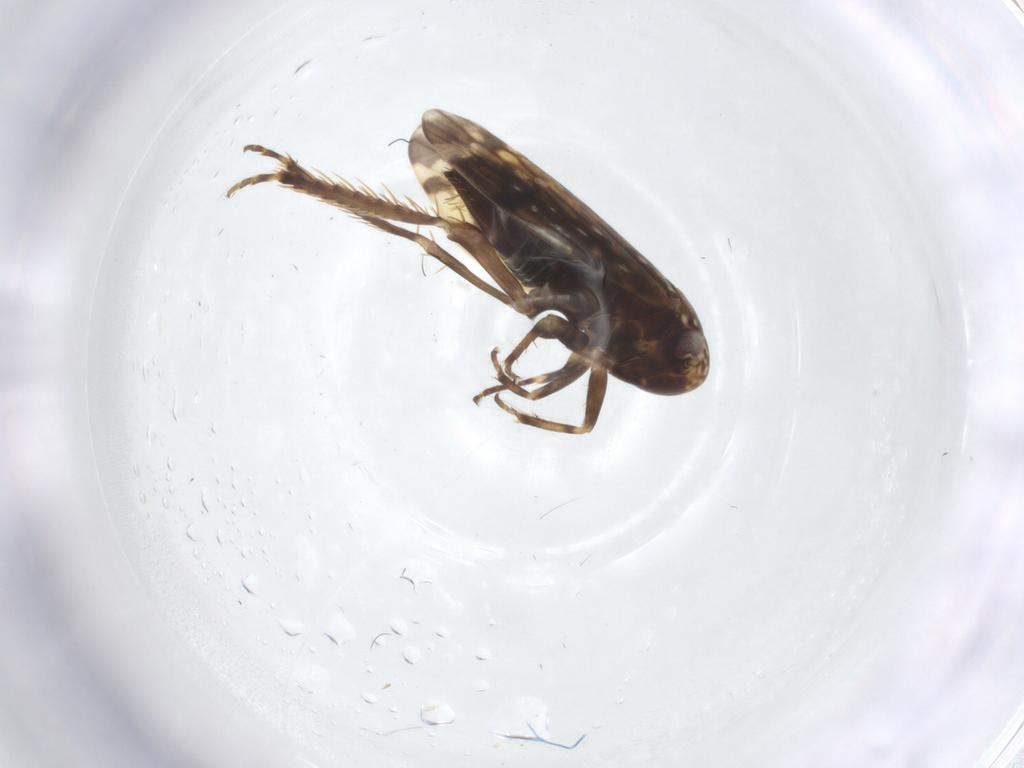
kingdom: Animalia
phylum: Arthropoda
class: Insecta
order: Hemiptera
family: Cicadellidae
